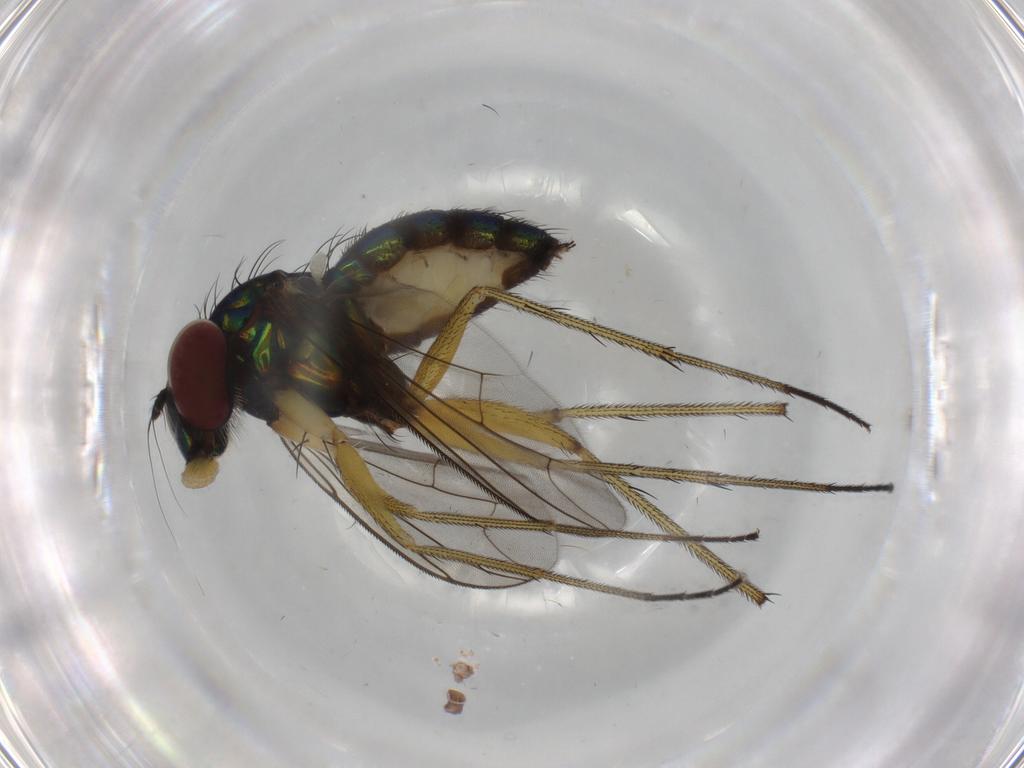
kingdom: Animalia
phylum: Arthropoda
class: Insecta
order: Diptera
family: Dolichopodidae
